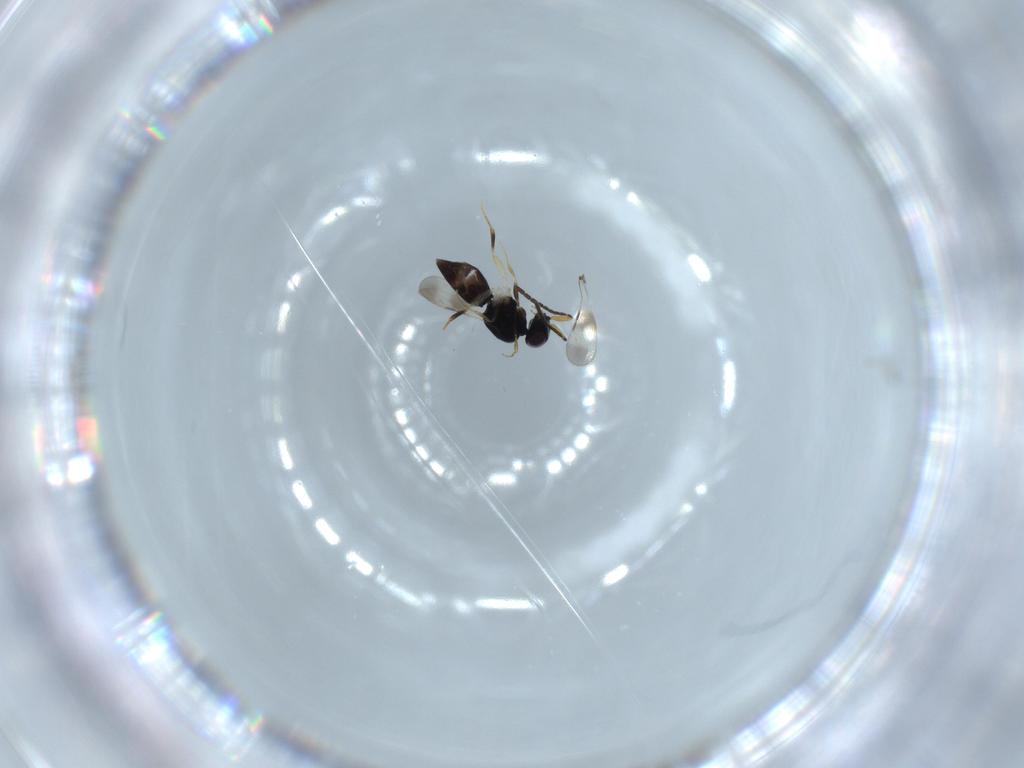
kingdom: Animalia
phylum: Arthropoda
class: Insecta
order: Hymenoptera
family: Ceraphronidae
